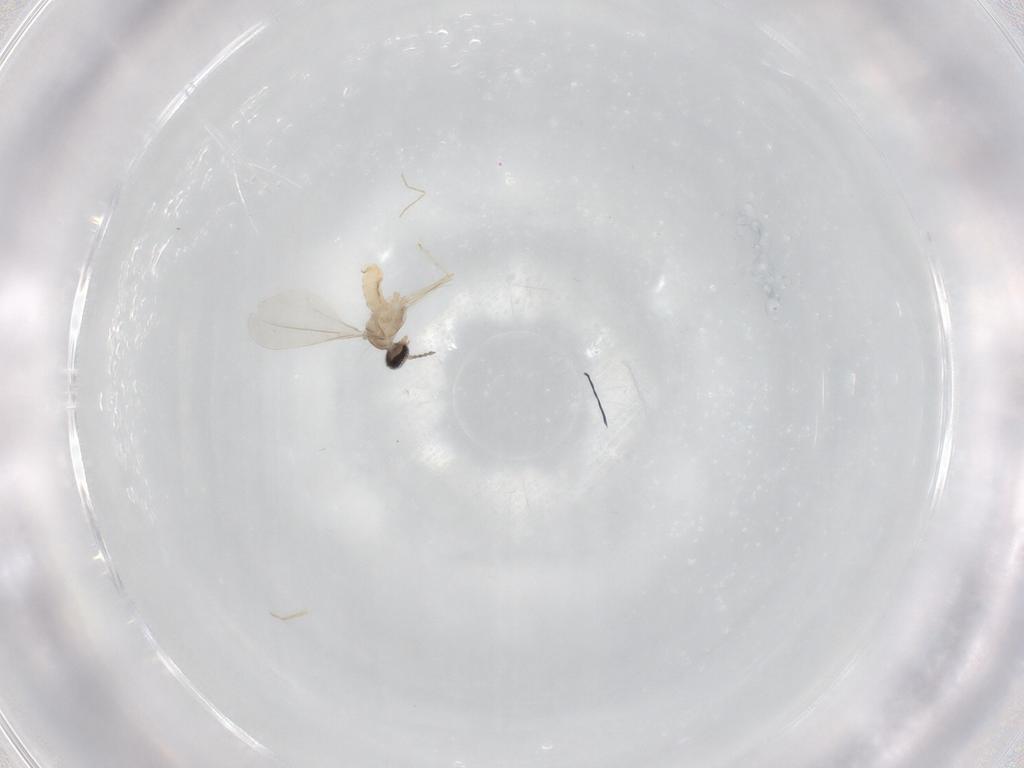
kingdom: Animalia
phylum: Arthropoda
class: Insecta
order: Diptera
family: Cecidomyiidae
